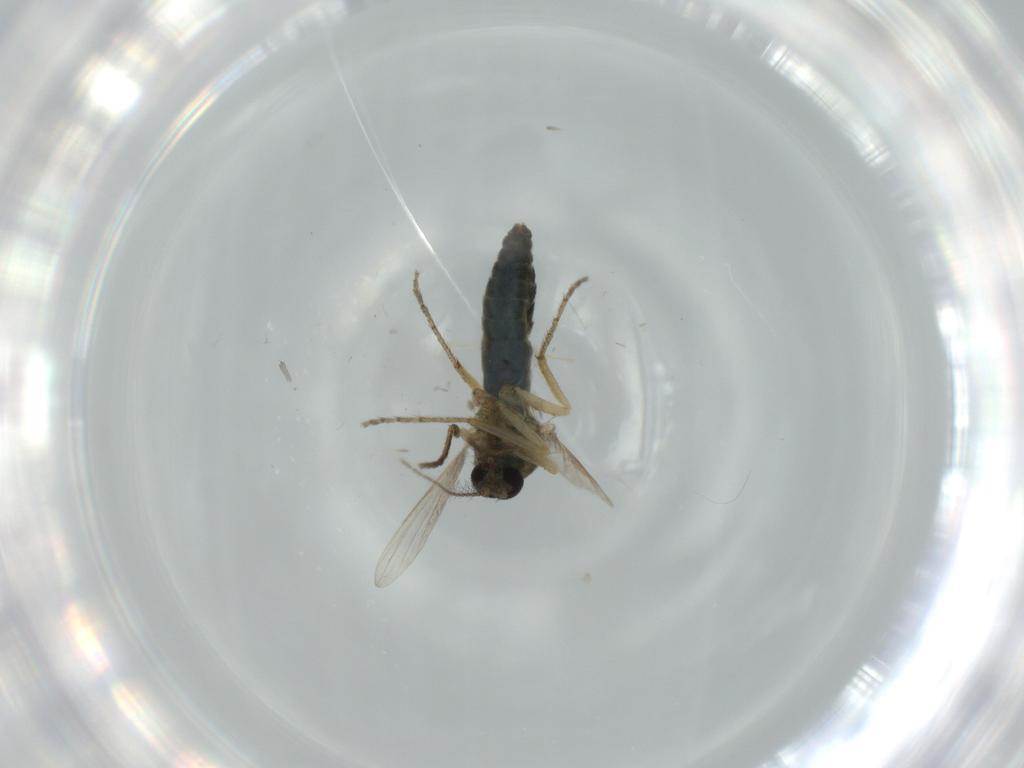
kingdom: Animalia
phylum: Arthropoda
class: Insecta
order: Diptera
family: Ceratopogonidae
